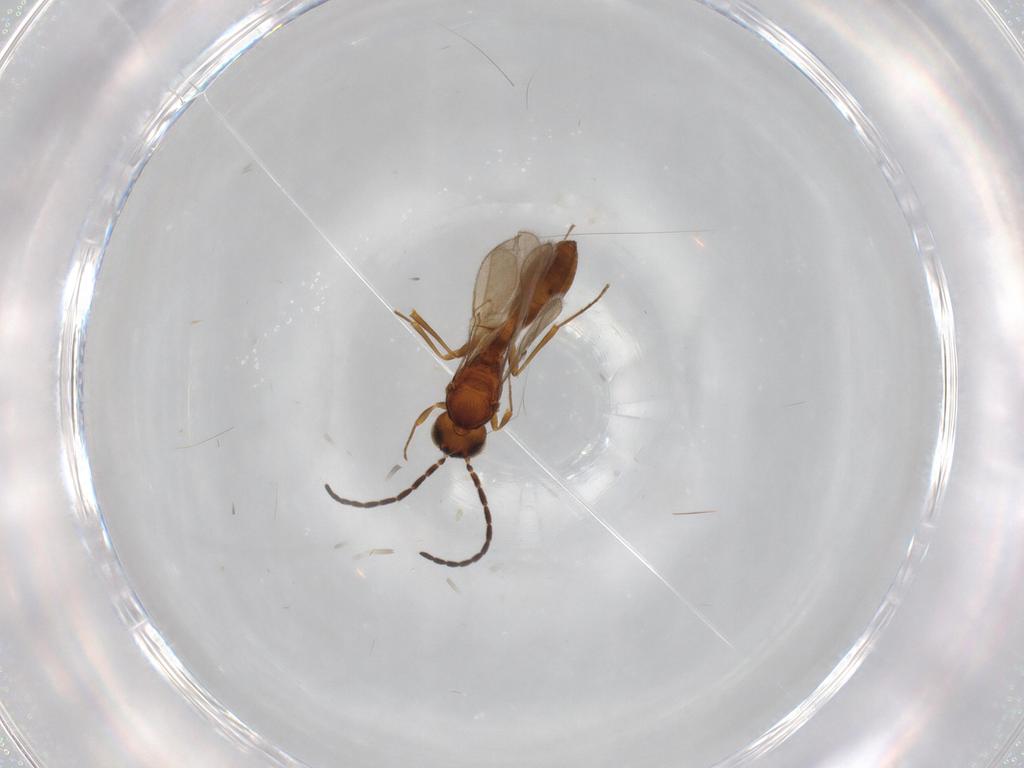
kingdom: Animalia
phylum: Arthropoda
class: Insecta
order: Hymenoptera
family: Scelionidae
